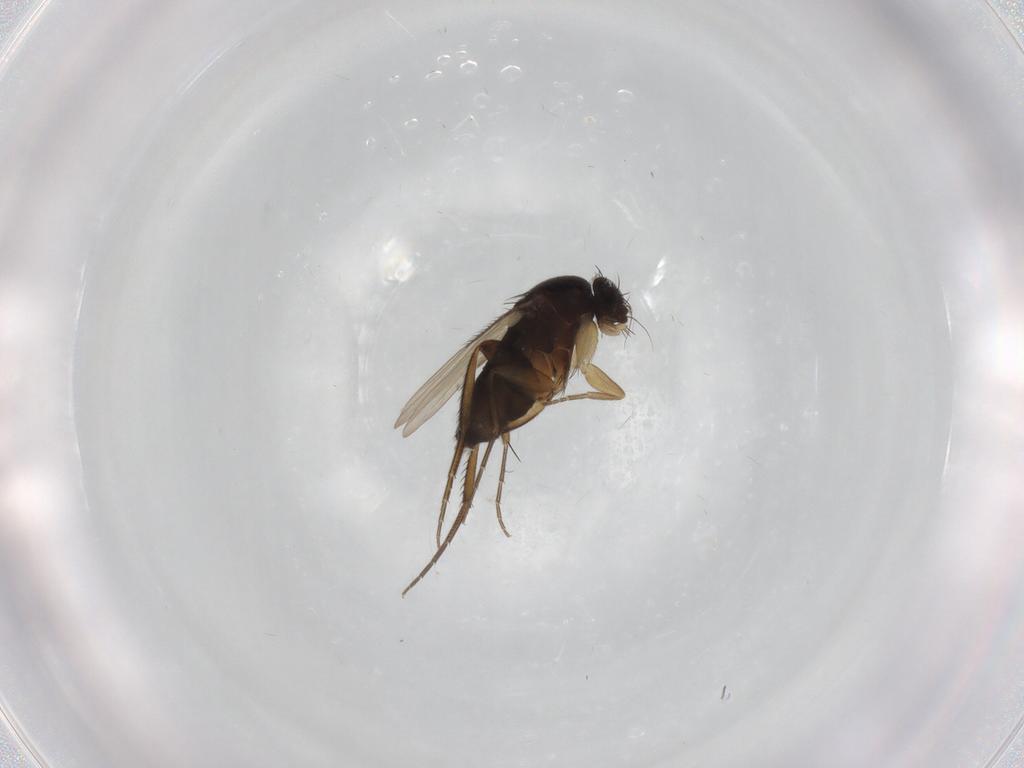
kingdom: Animalia
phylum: Arthropoda
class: Insecta
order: Diptera
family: Phoridae
